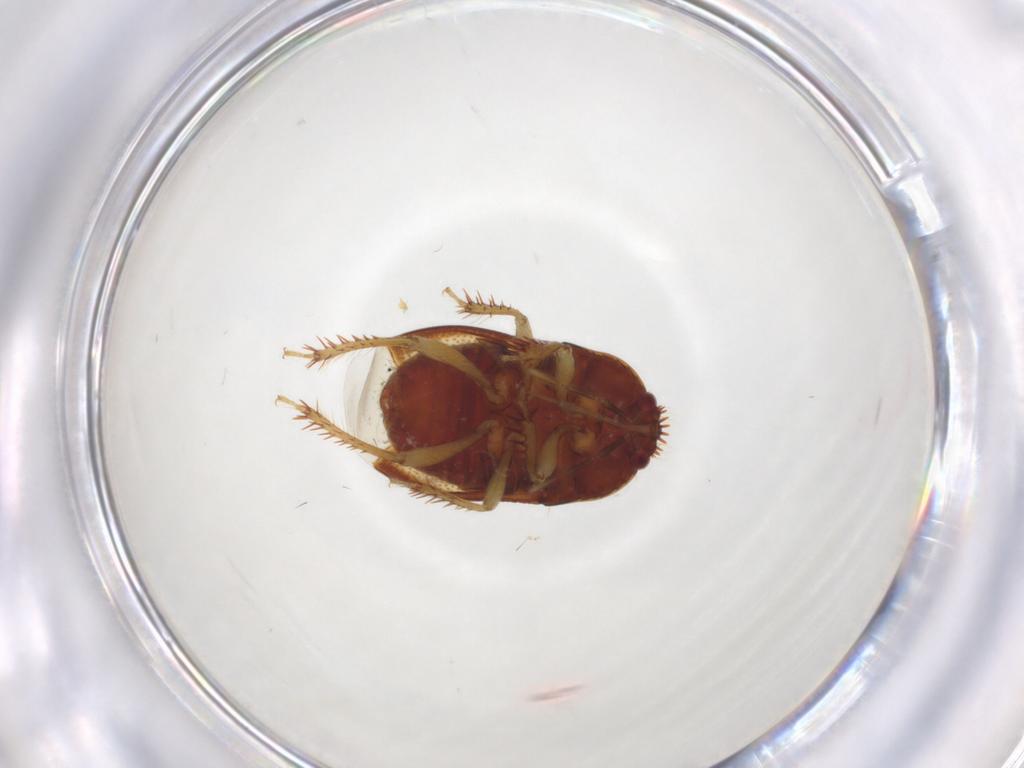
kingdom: Animalia
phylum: Arthropoda
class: Insecta
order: Hemiptera
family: Cydnidae
